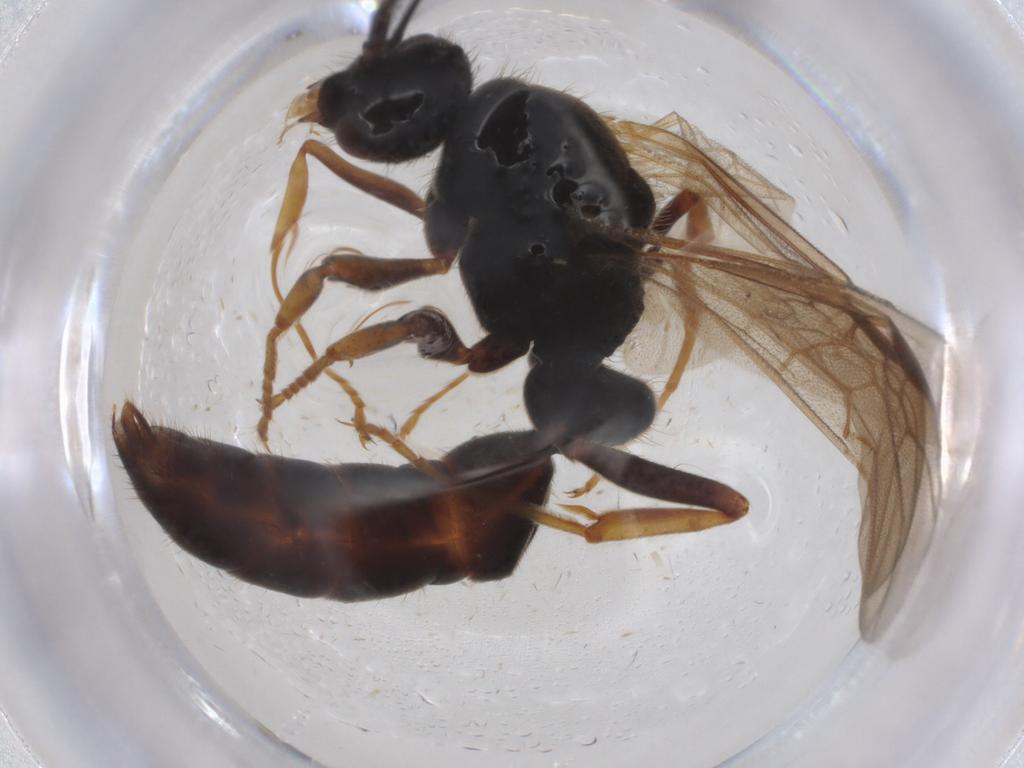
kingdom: Animalia
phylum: Arthropoda
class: Insecta
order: Hymenoptera
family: Formicidae
